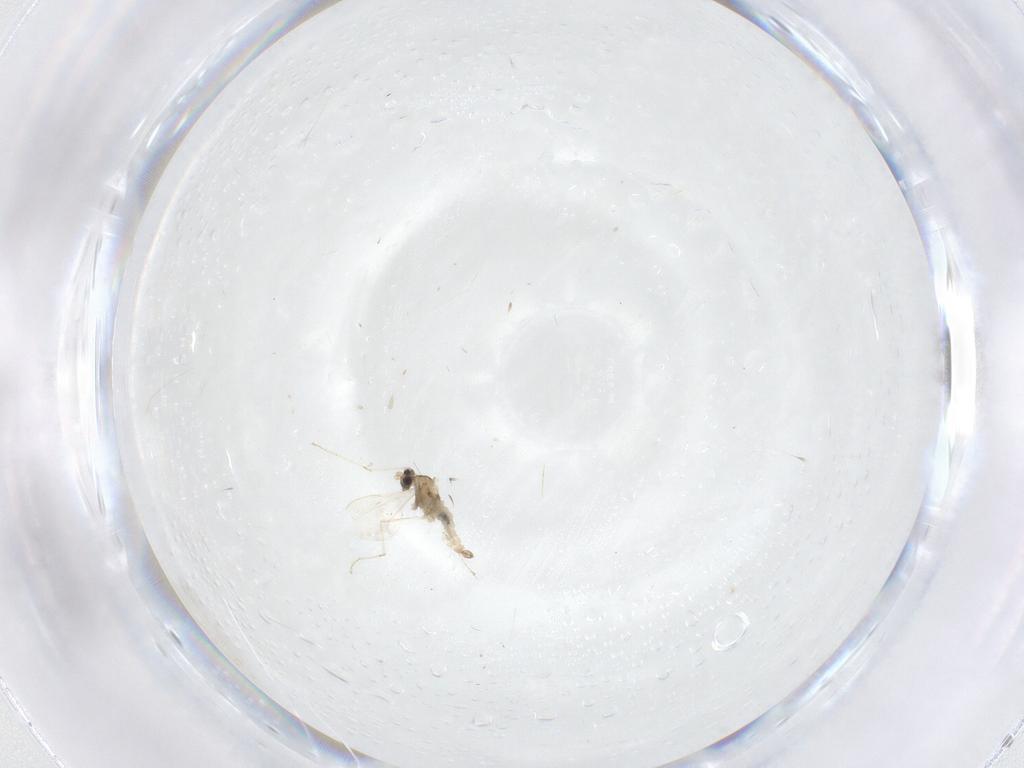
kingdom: Animalia
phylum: Arthropoda
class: Insecta
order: Diptera
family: Cecidomyiidae
